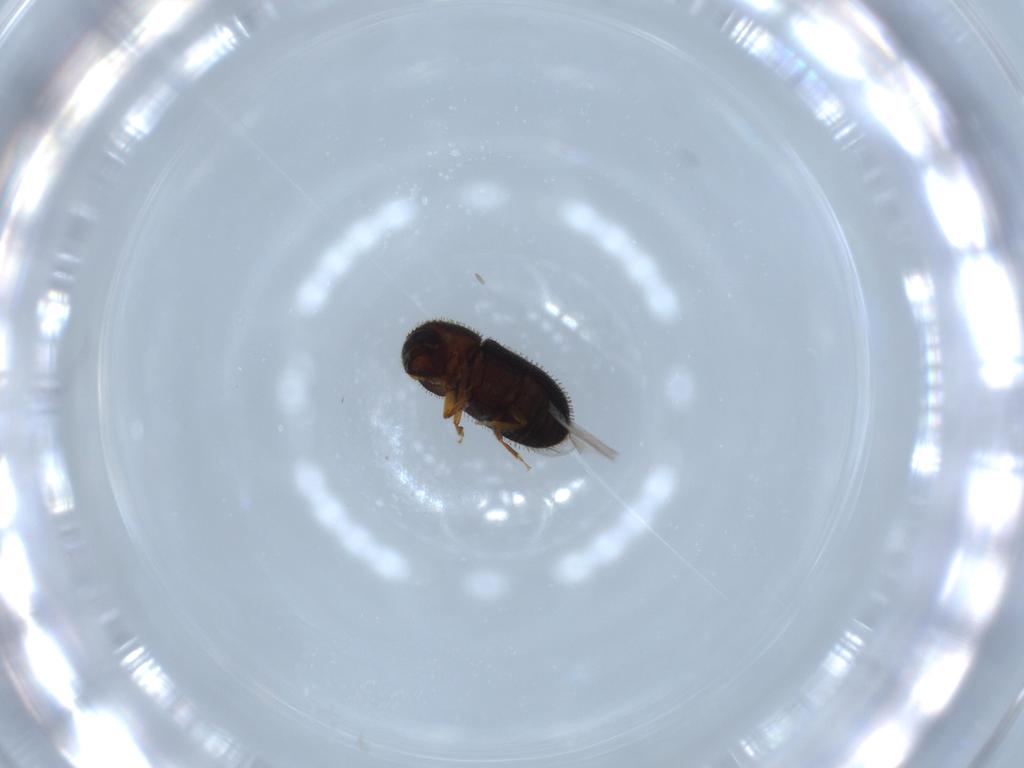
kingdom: Animalia
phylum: Arthropoda
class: Insecta
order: Coleoptera
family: Curculionidae
